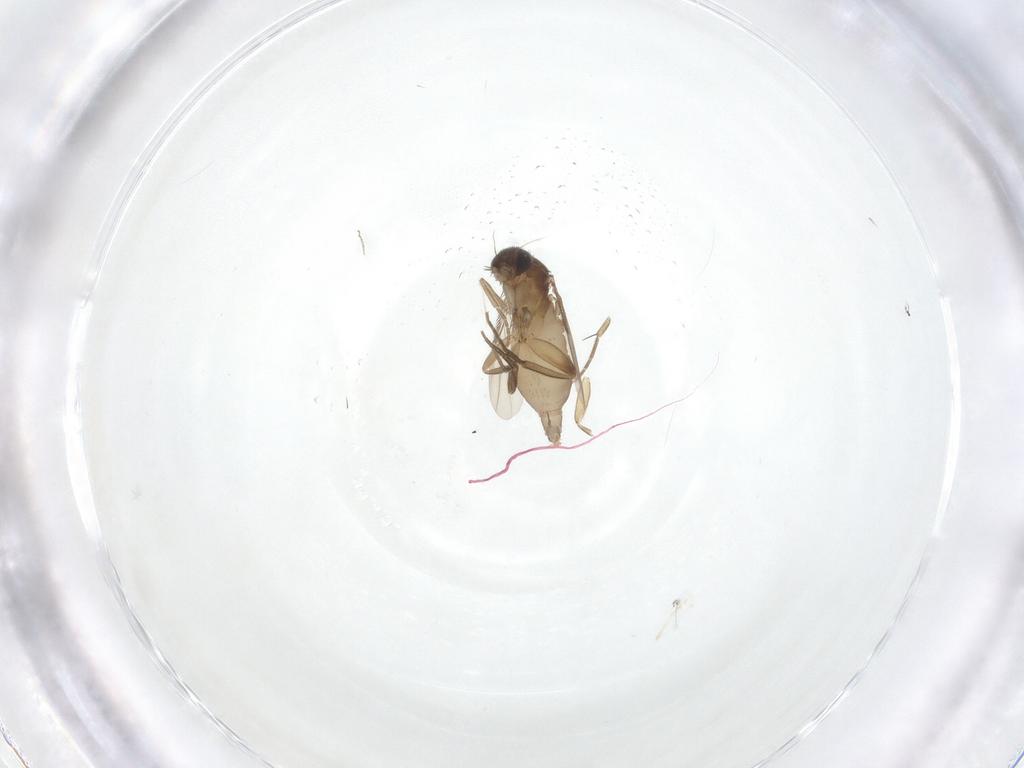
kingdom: Animalia
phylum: Arthropoda
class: Insecta
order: Diptera
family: Phoridae
